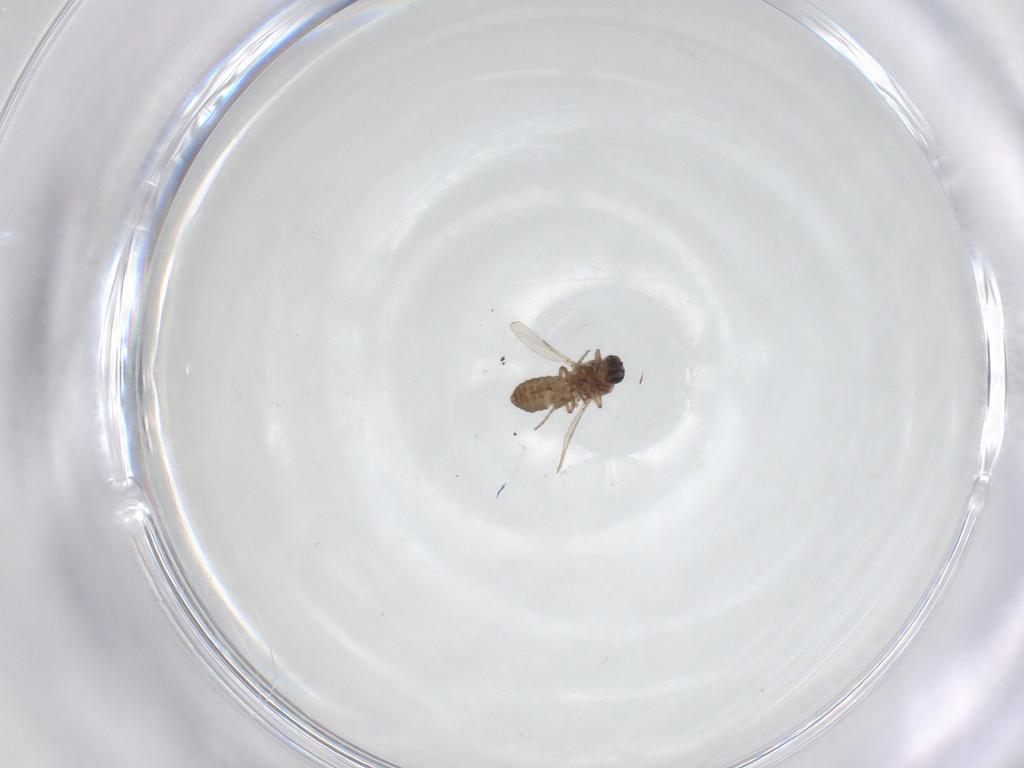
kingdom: Animalia
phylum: Arthropoda
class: Insecta
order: Diptera
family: Ceratopogonidae
